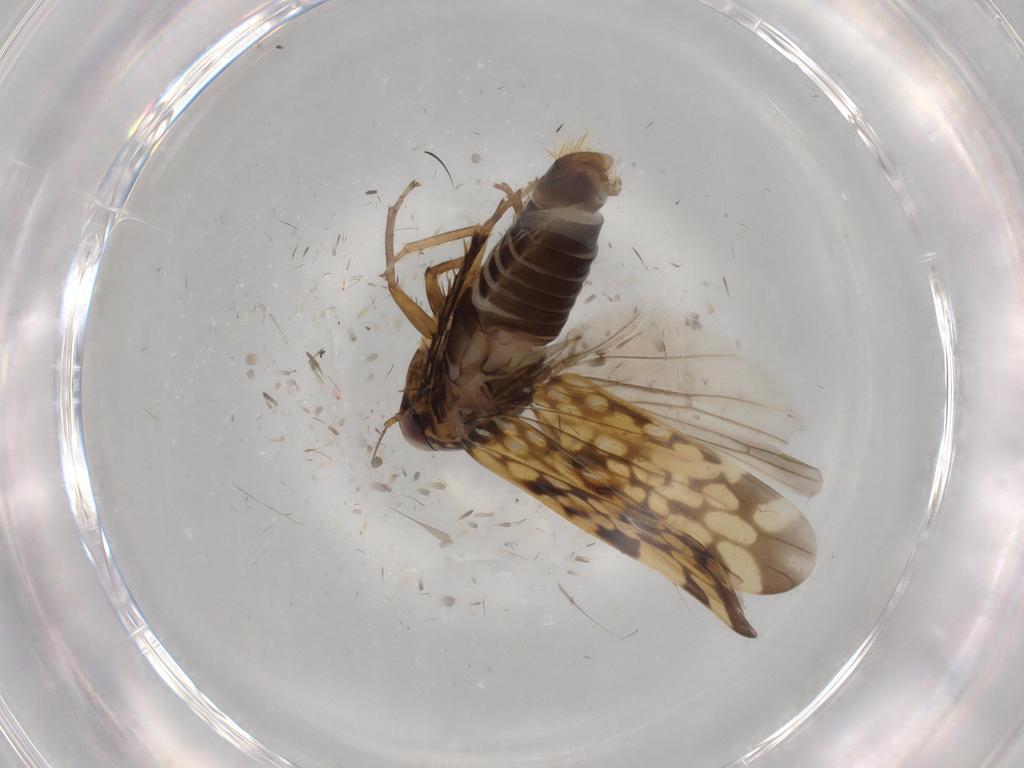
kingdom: Animalia
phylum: Arthropoda
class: Insecta
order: Hemiptera
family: Cicadellidae
